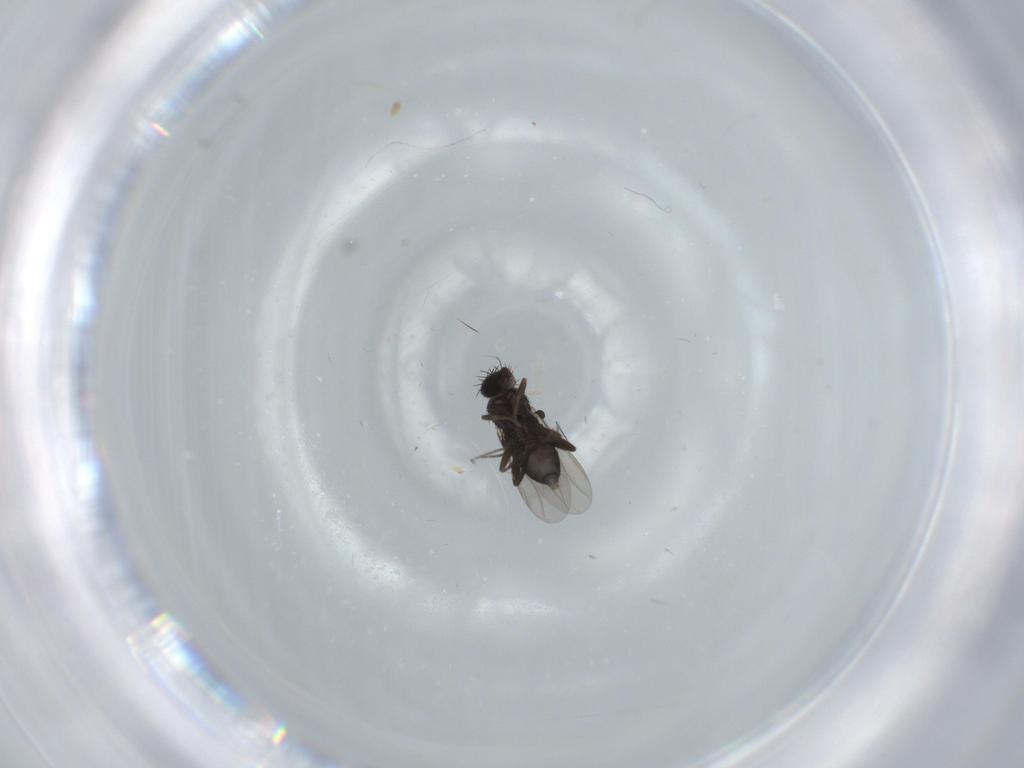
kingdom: Animalia
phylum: Arthropoda
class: Insecta
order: Diptera
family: Phoridae
